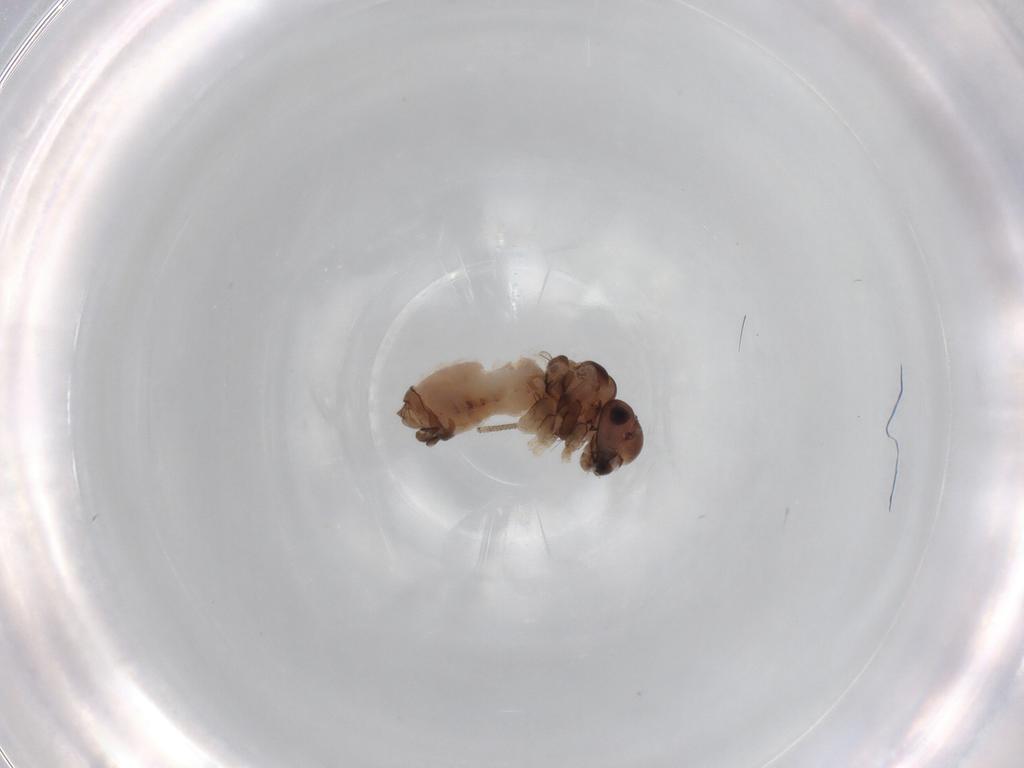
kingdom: Animalia
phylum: Arthropoda
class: Insecta
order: Psocodea
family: Peripsocidae
